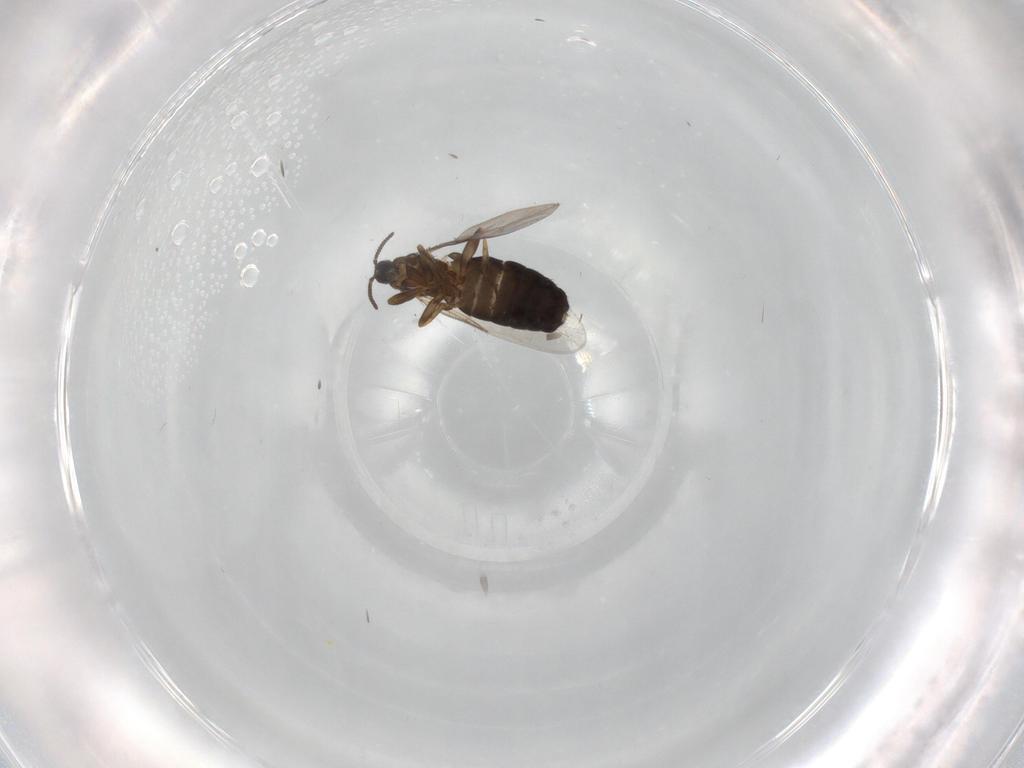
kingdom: Animalia
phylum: Arthropoda
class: Insecta
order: Diptera
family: Scatopsidae
